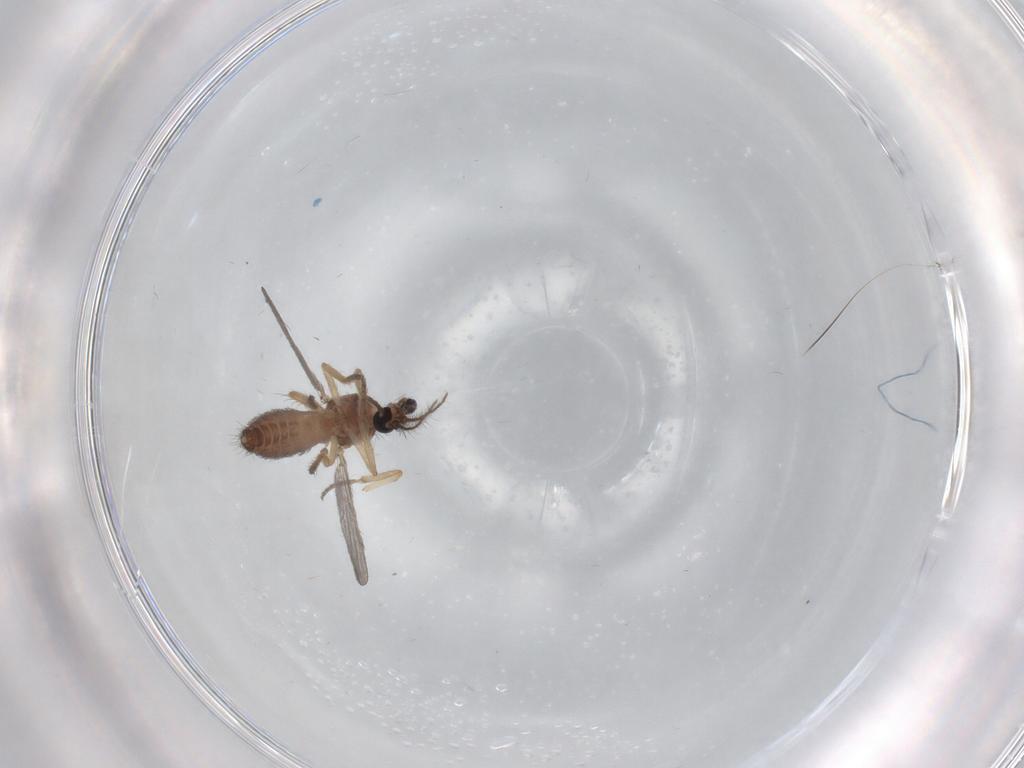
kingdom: Animalia
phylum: Arthropoda
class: Insecta
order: Diptera
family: Ceratopogonidae
